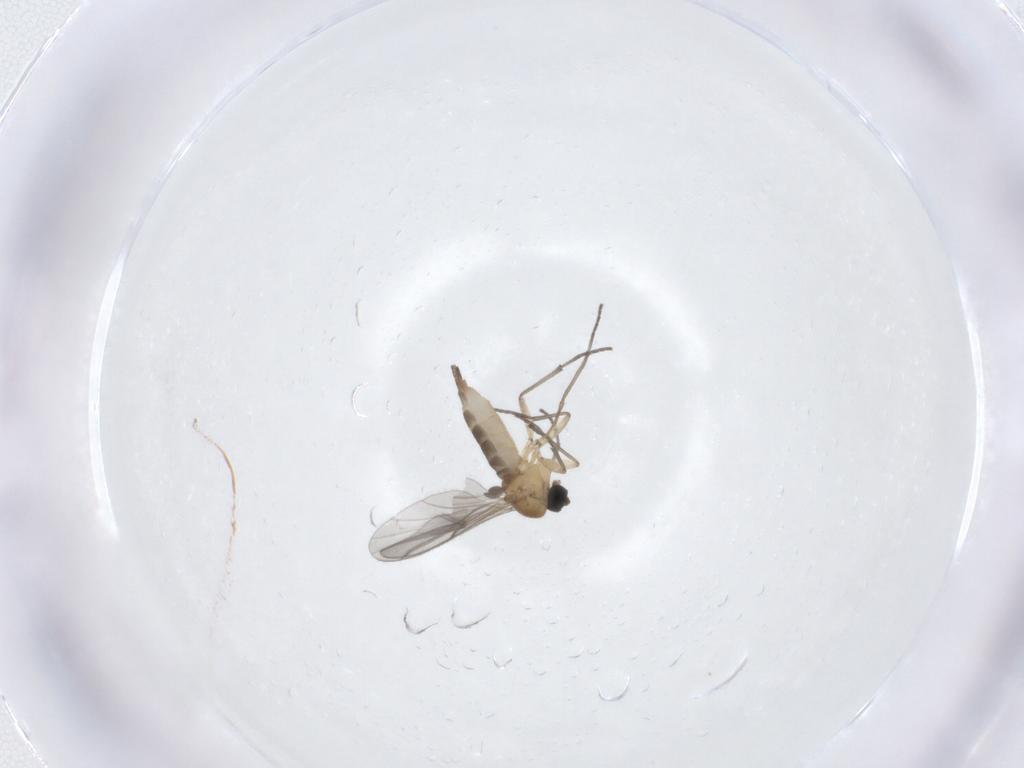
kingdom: Animalia
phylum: Arthropoda
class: Insecta
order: Diptera
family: Sciaridae
